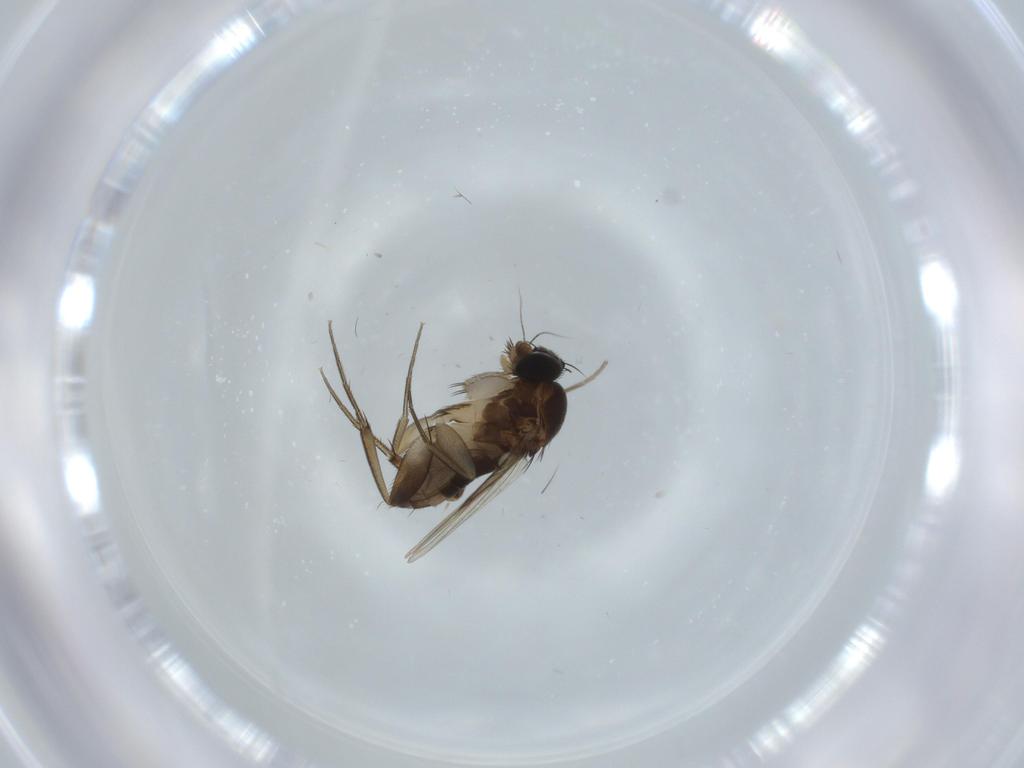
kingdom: Animalia
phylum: Arthropoda
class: Insecta
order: Diptera
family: Phoridae
